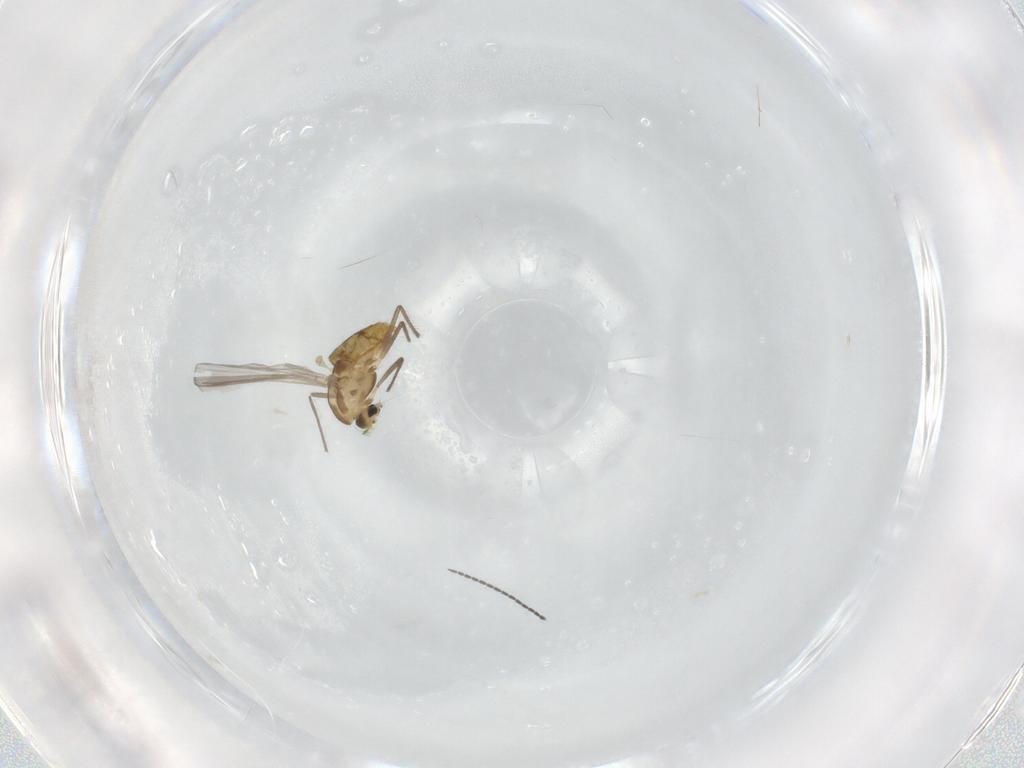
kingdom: Animalia
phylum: Arthropoda
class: Insecta
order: Diptera
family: Chironomidae
